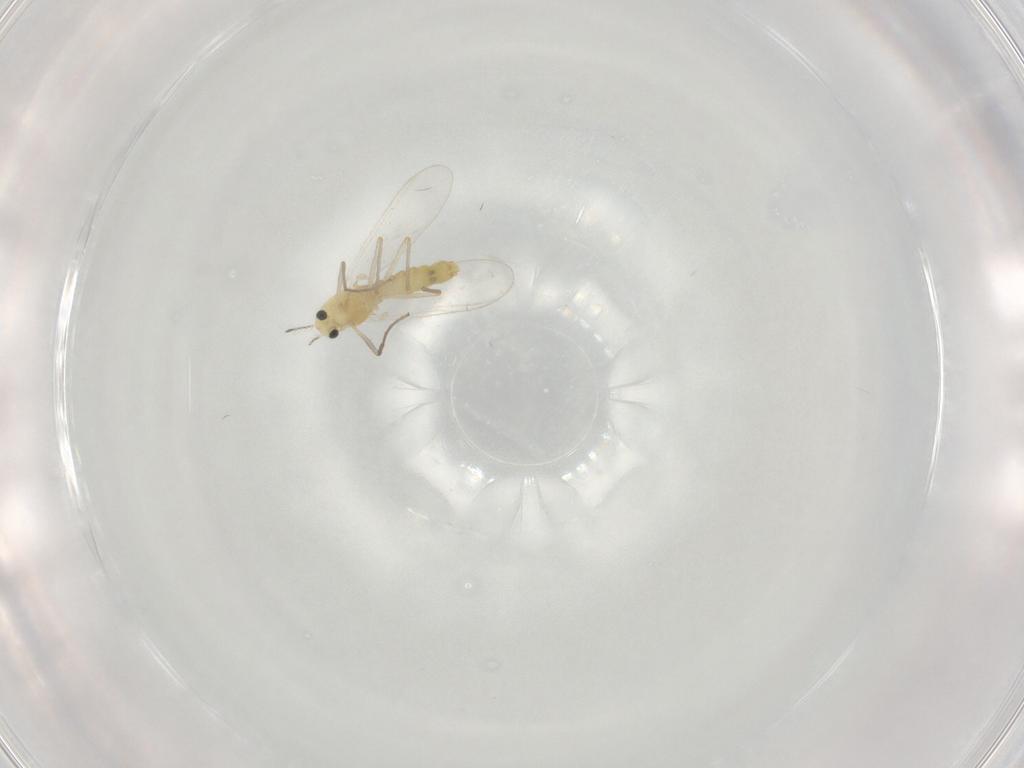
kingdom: Animalia
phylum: Arthropoda
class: Insecta
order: Diptera
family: Chironomidae
